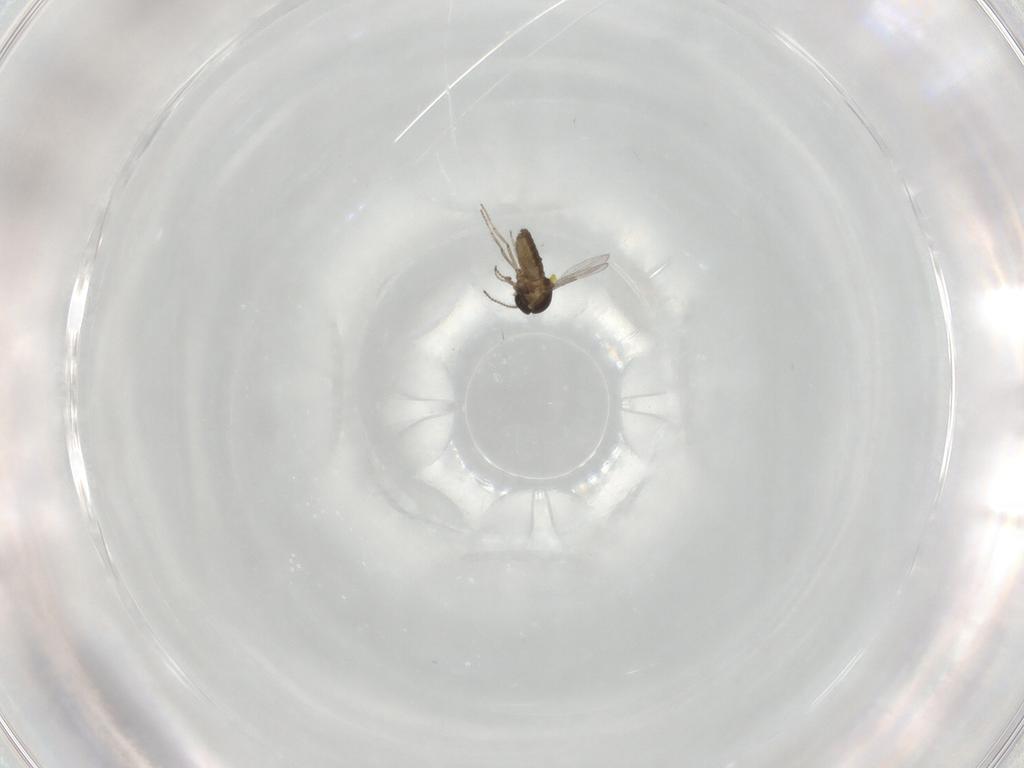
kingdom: Animalia
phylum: Arthropoda
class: Insecta
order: Diptera
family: Ceratopogonidae
